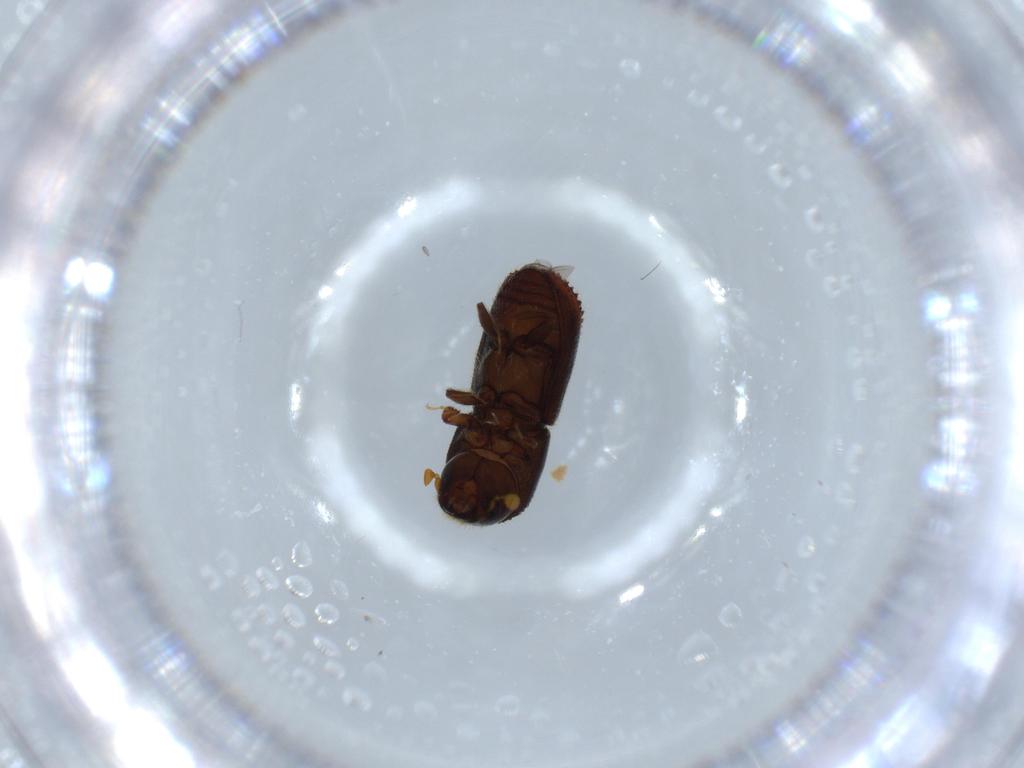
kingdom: Animalia
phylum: Arthropoda
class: Insecta
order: Coleoptera
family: Curculionidae
